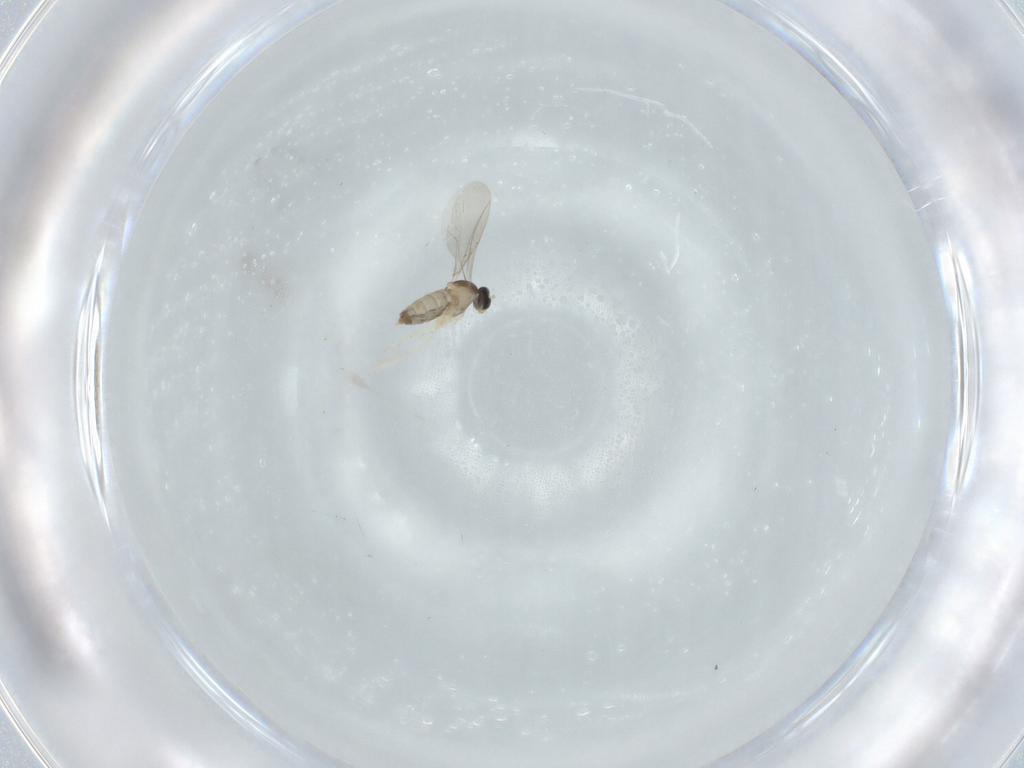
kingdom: Animalia
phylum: Arthropoda
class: Insecta
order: Diptera
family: Cecidomyiidae
